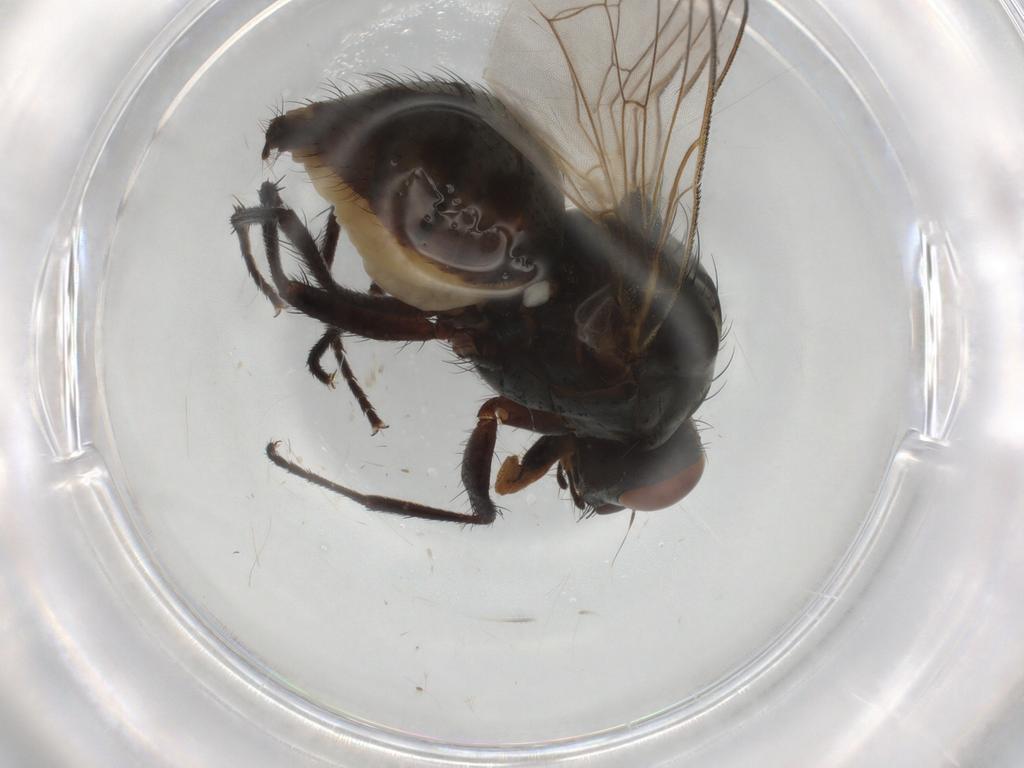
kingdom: Animalia
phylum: Arthropoda
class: Insecta
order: Diptera
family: Anthomyiidae
